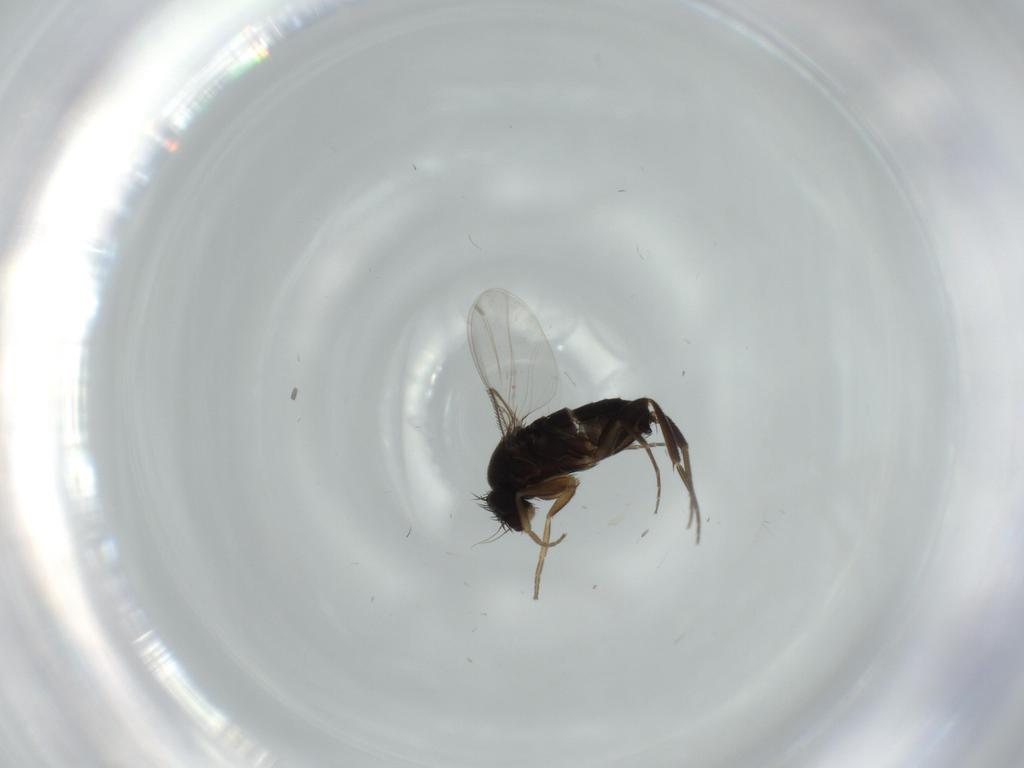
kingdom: Animalia
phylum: Arthropoda
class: Insecta
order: Diptera
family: Phoridae
